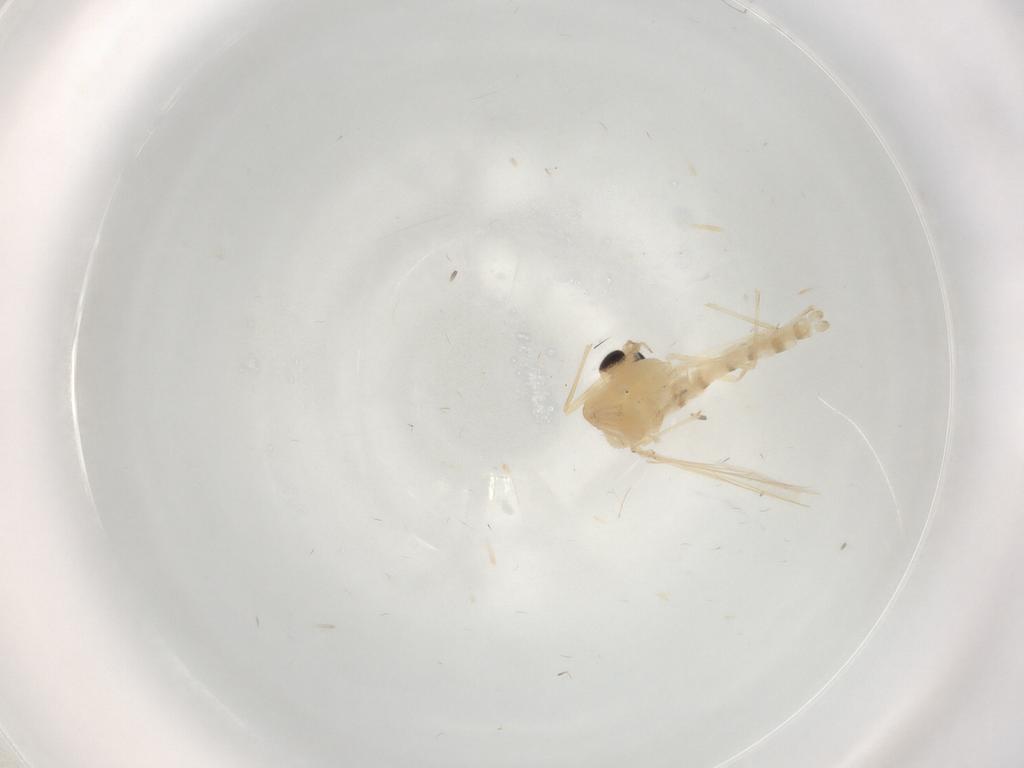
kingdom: Animalia
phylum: Arthropoda
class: Insecta
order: Diptera
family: Chironomidae
